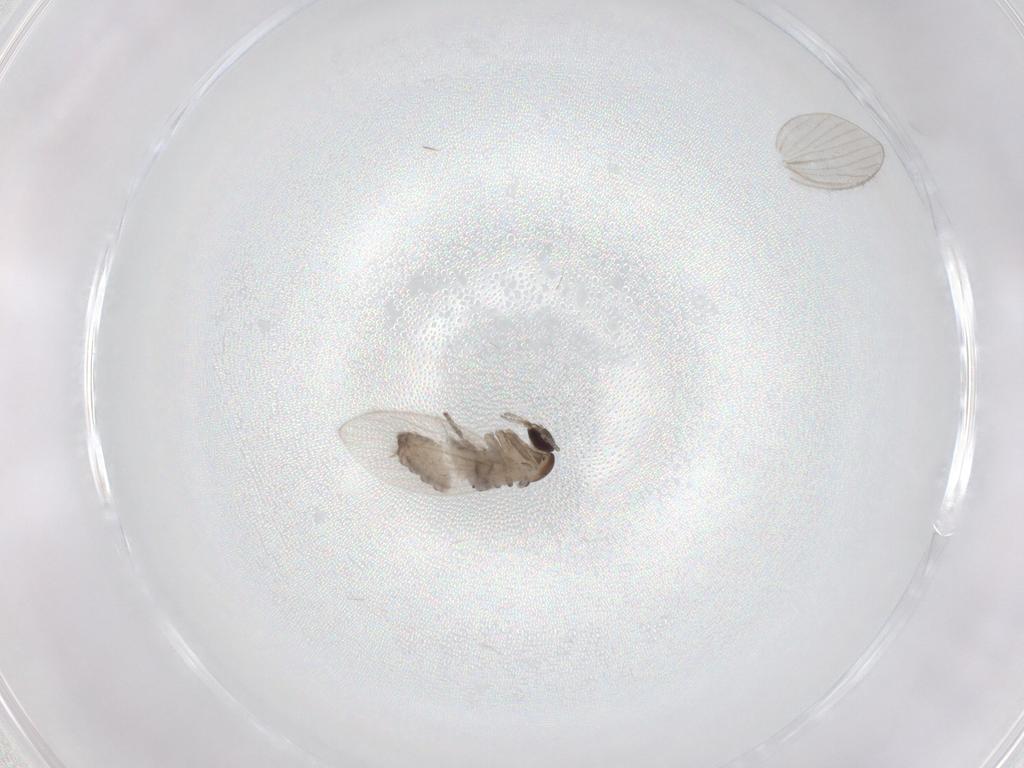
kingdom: Animalia
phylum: Arthropoda
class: Insecta
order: Diptera
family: Psychodidae
